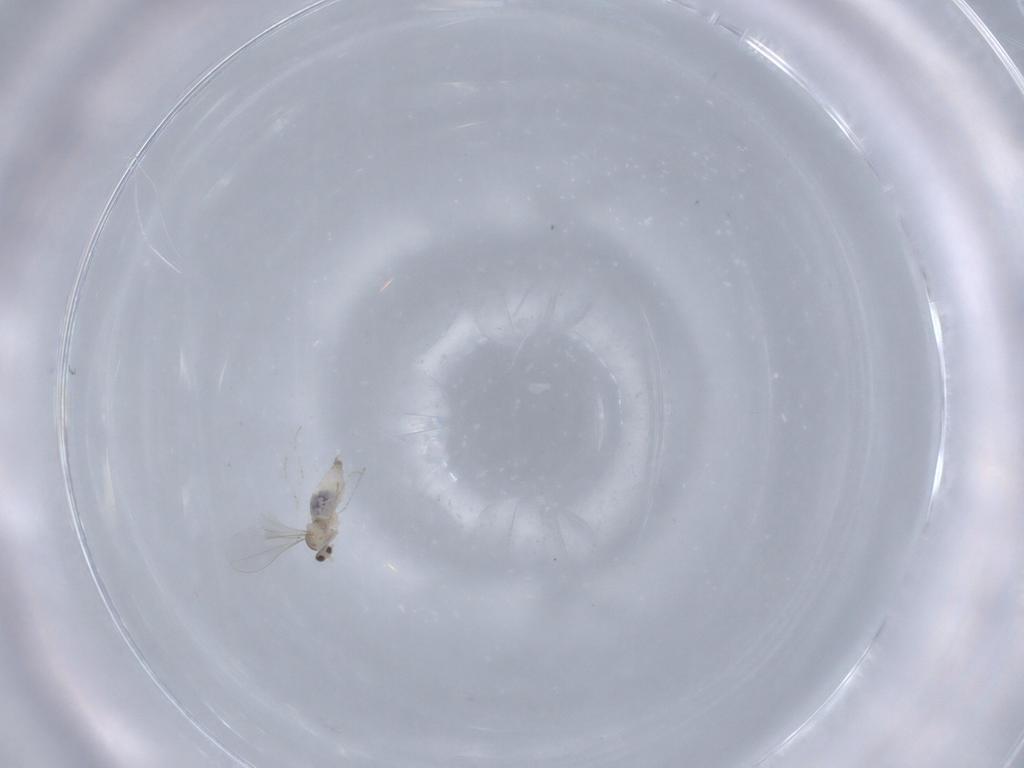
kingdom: Animalia
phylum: Arthropoda
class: Insecta
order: Diptera
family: Cecidomyiidae
